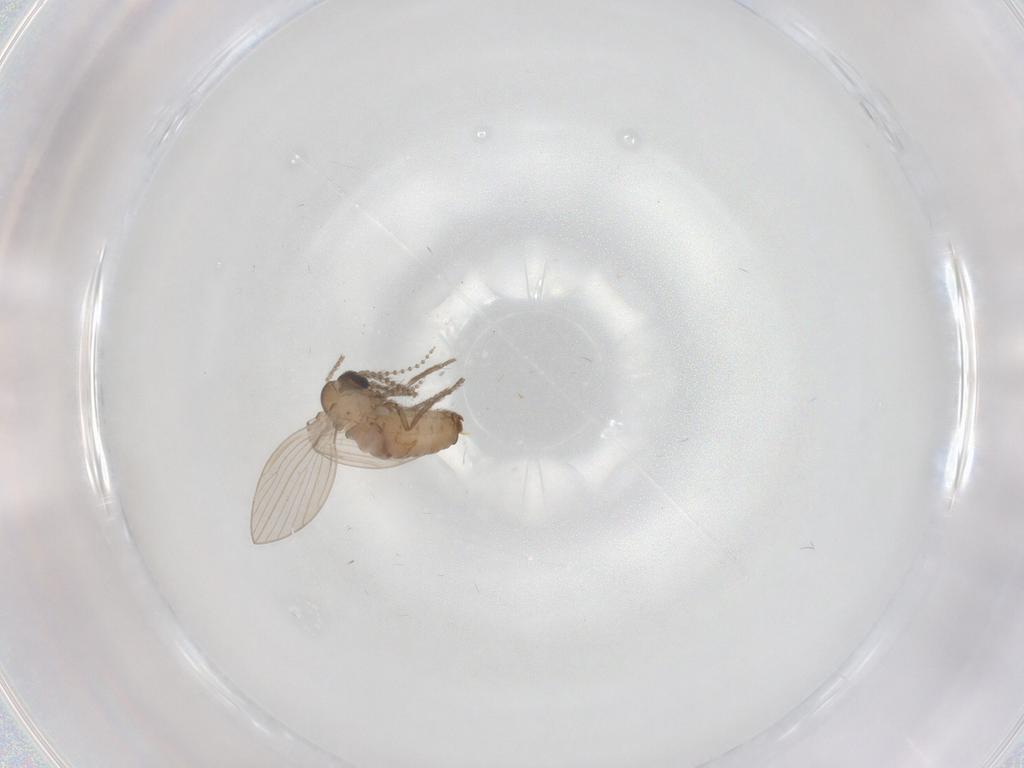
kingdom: Animalia
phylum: Arthropoda
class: Insecta
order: Diptera
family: Psychodidae
